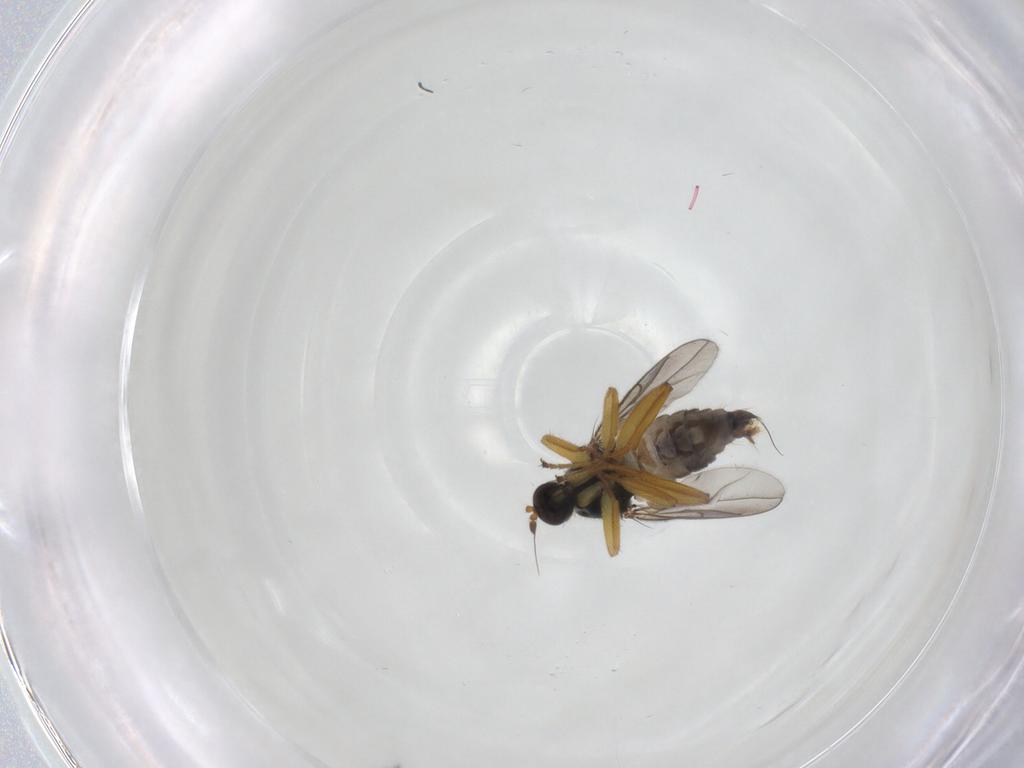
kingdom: Animalia
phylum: Arthropoda
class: Insecta
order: Diptera
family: Hybotidae
